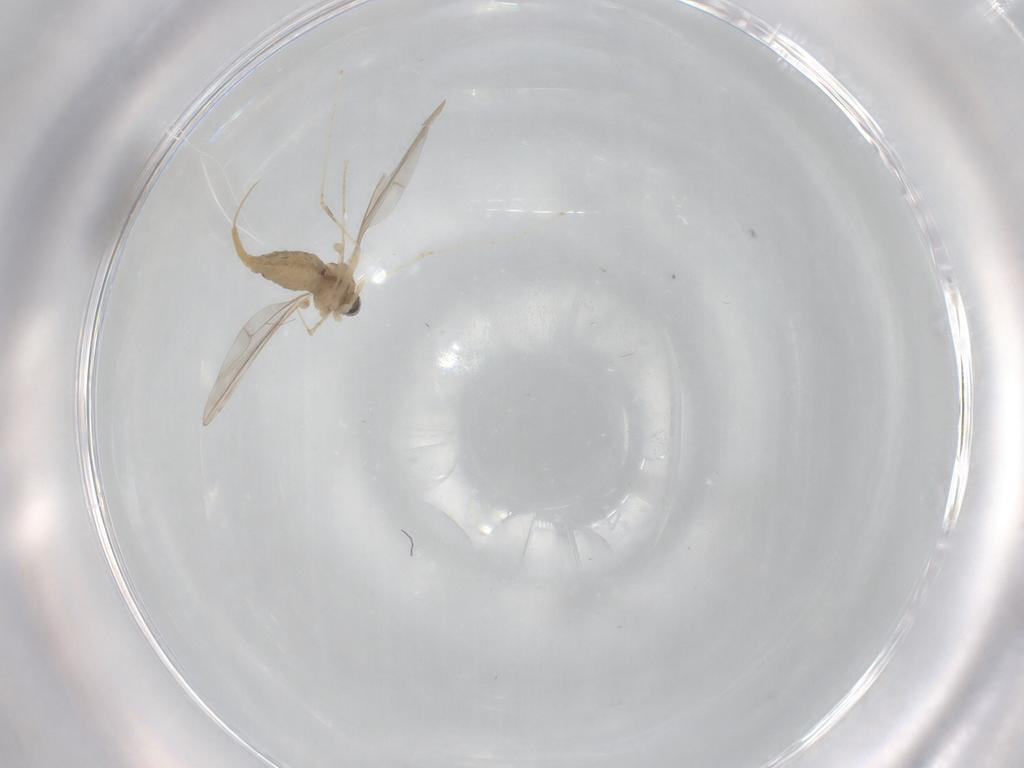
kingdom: Animalia
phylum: Arthropoda
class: Insecta
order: Diptera
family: Cecidomyiidae
